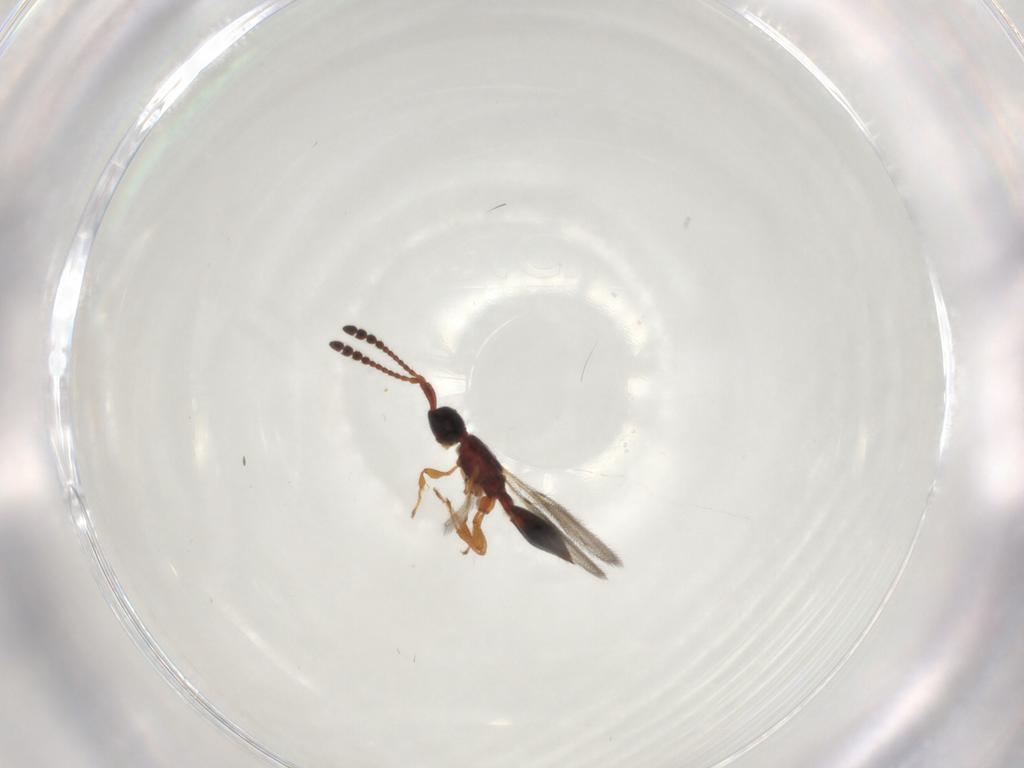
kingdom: Animalia
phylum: Arthropoda
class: Insecta
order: Hymenoptera
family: Diapriidae
